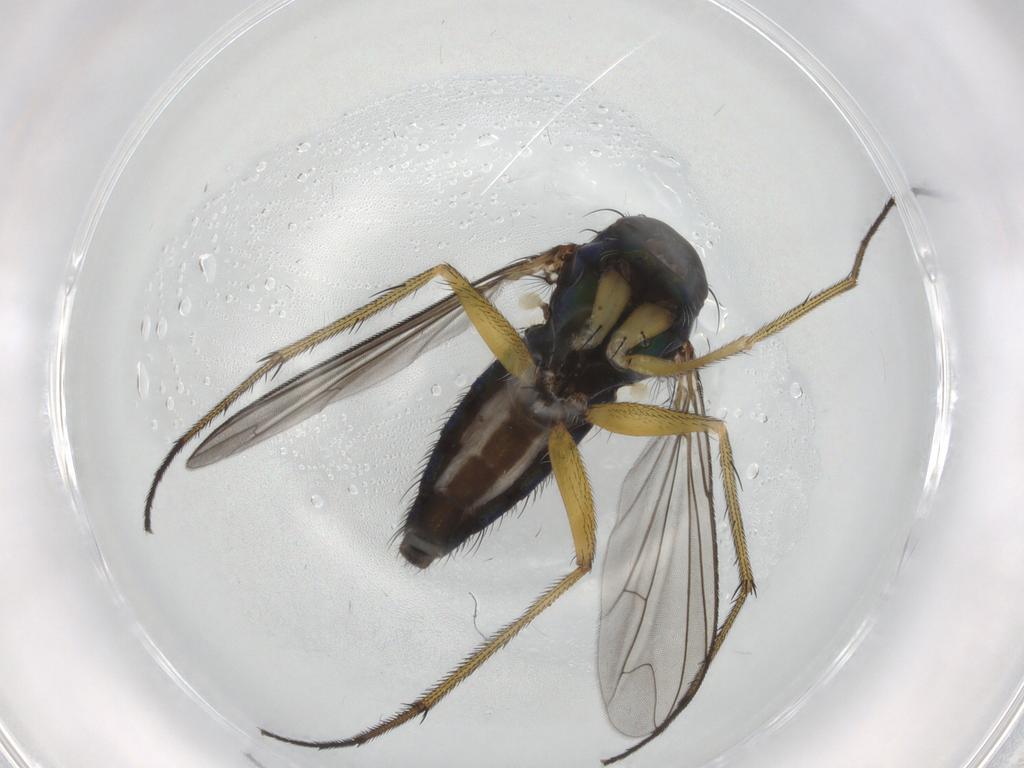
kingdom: Animalia
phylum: Arthropoda
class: Insecta
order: Diptera
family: Dolichopodidae
